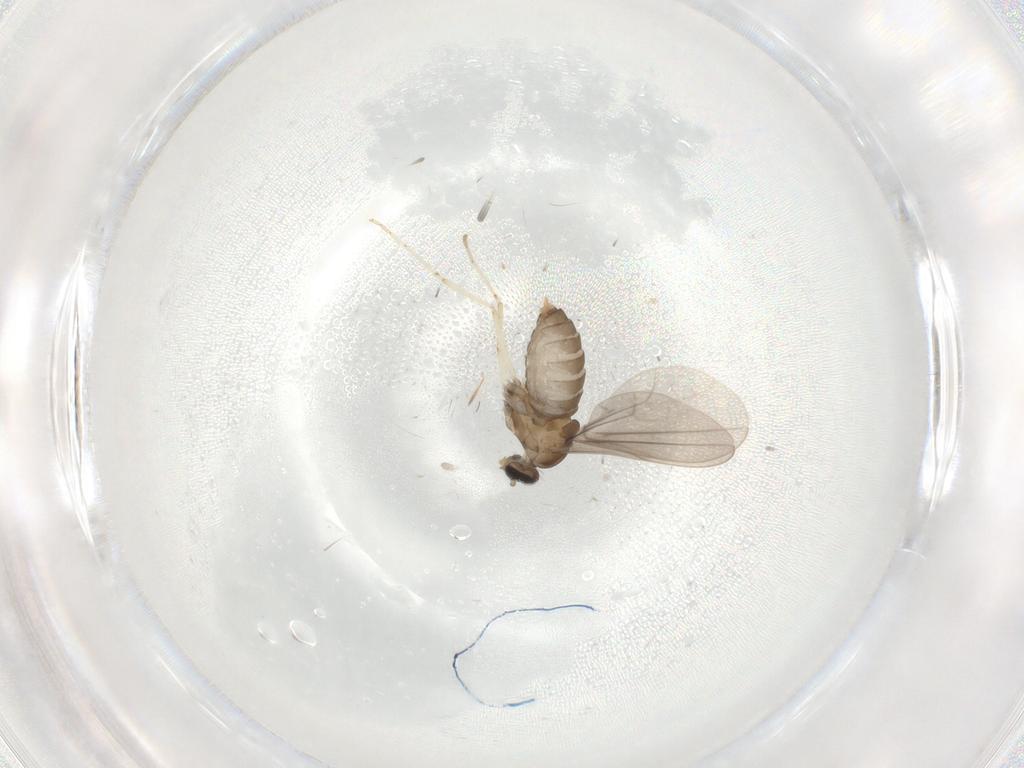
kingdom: Animalia
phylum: Arthropoda
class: Insecta
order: Diptera
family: Cecidomyiidae
